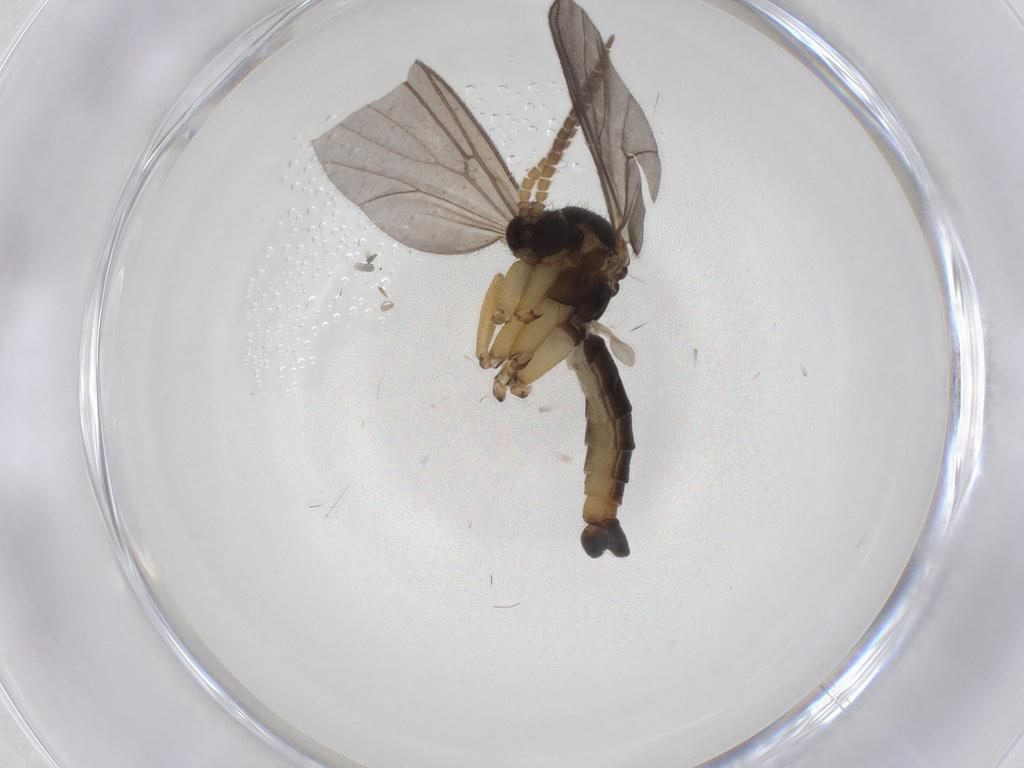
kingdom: Animalia
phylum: Arthropoda
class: Insecta
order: Diptera
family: Mycetophilidae
